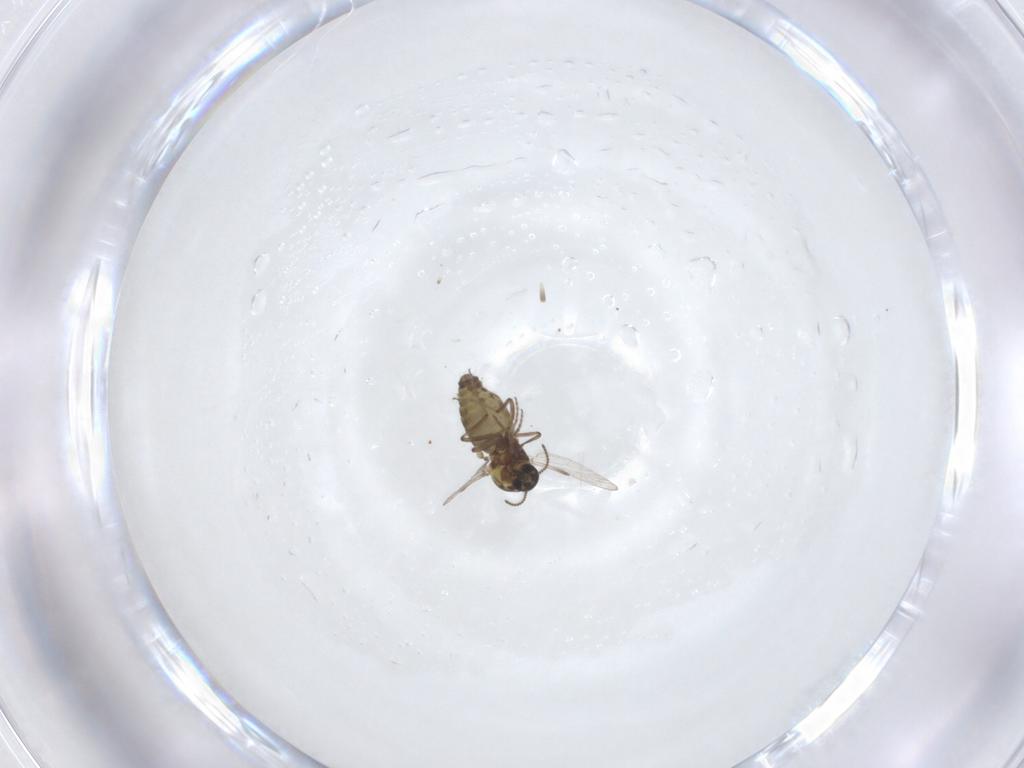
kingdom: Animalia
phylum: Arthropoda
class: Insecta
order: Diptera
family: Ceratopogonidae
